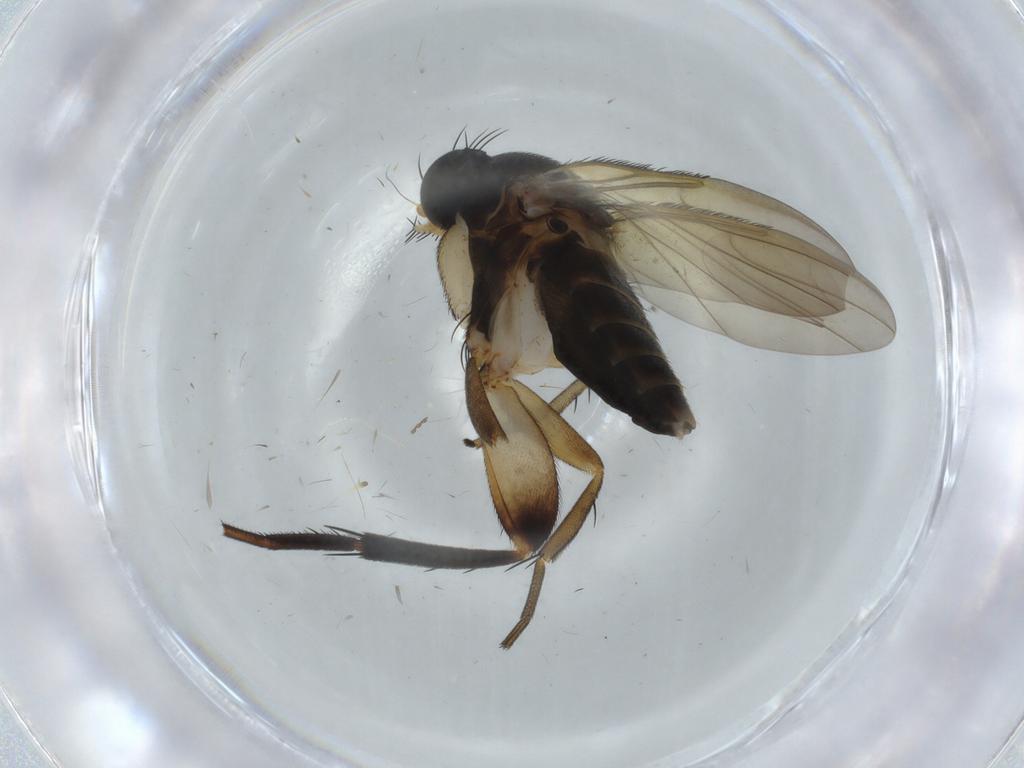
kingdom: Animalia
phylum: Arthropoda
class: Insecta
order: Diptera
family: Phoridae
